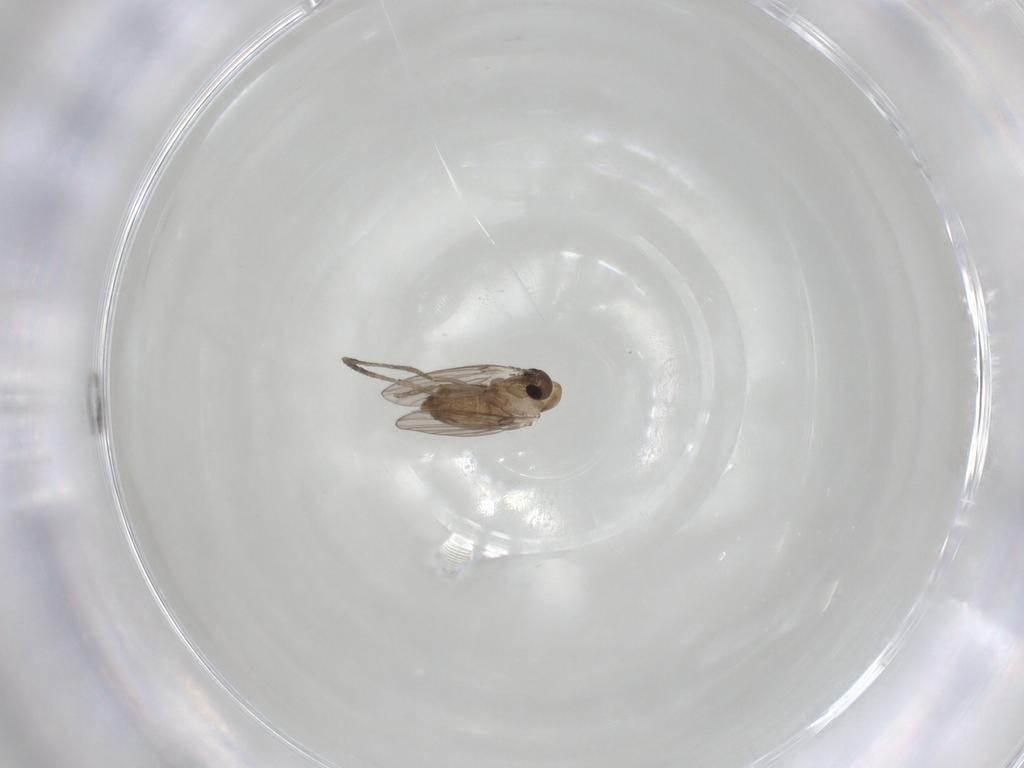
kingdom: Animalia
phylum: Arthropoda
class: Insecta
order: Diptera
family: Psychodidae
